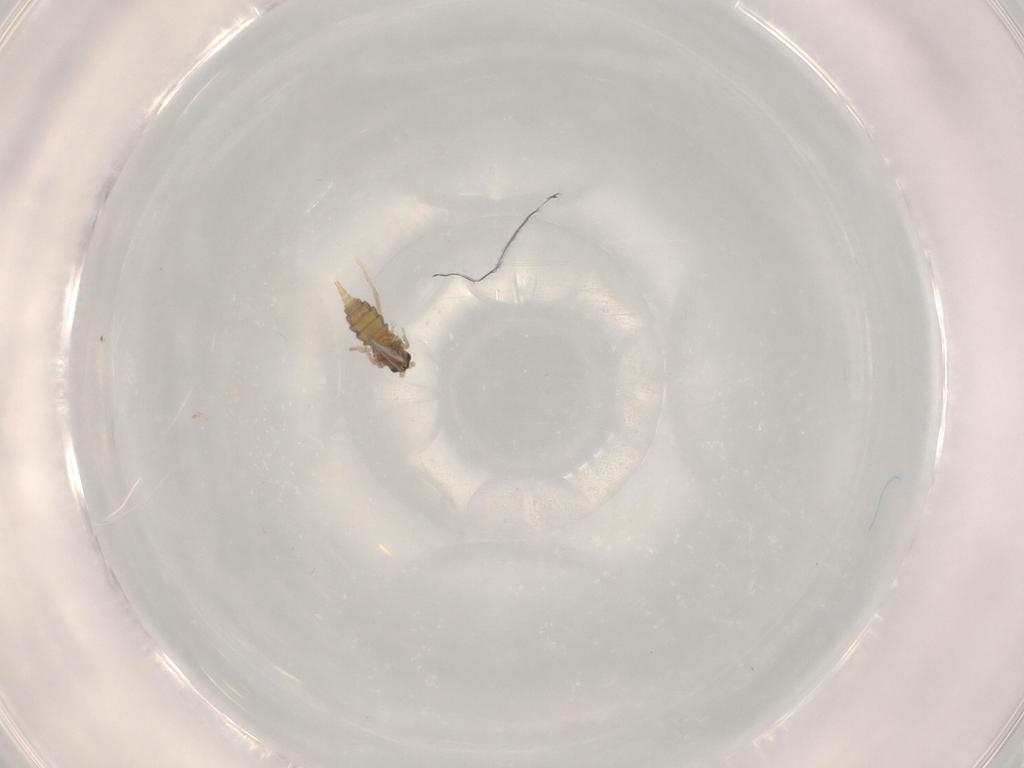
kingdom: Animalia
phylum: Arthropoda
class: Insecta
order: Diptera
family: Cecidomyiidae
